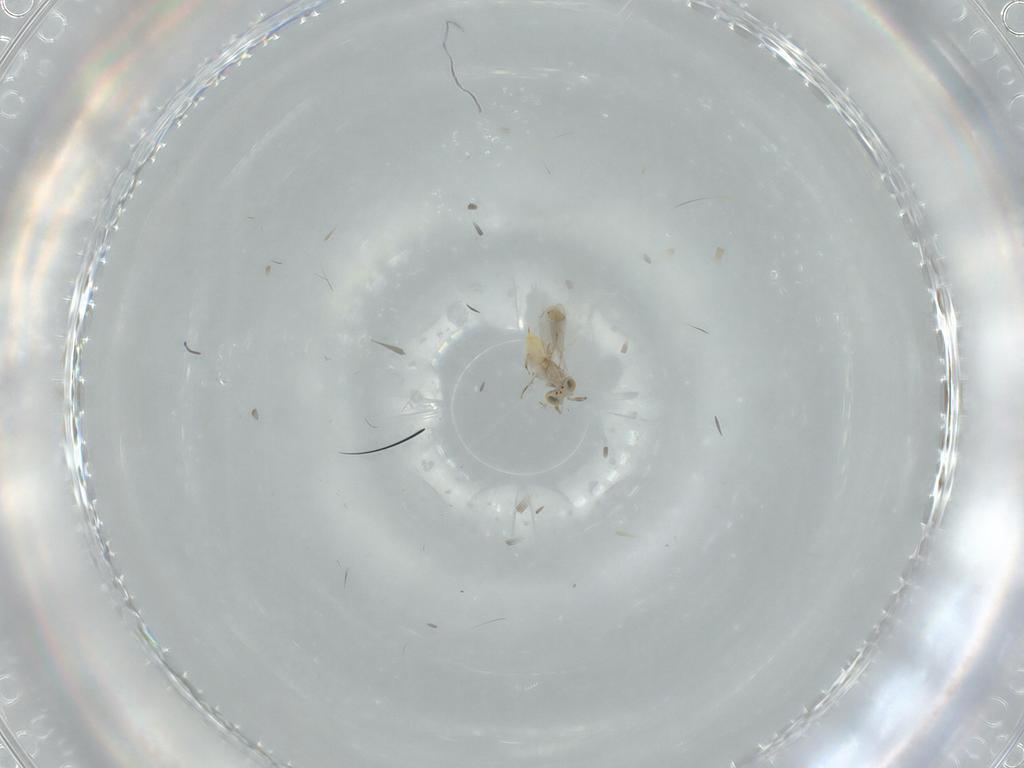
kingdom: Animalia
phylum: Arthropoda
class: Insecta
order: Hymenoptera
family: Aphelinidae
